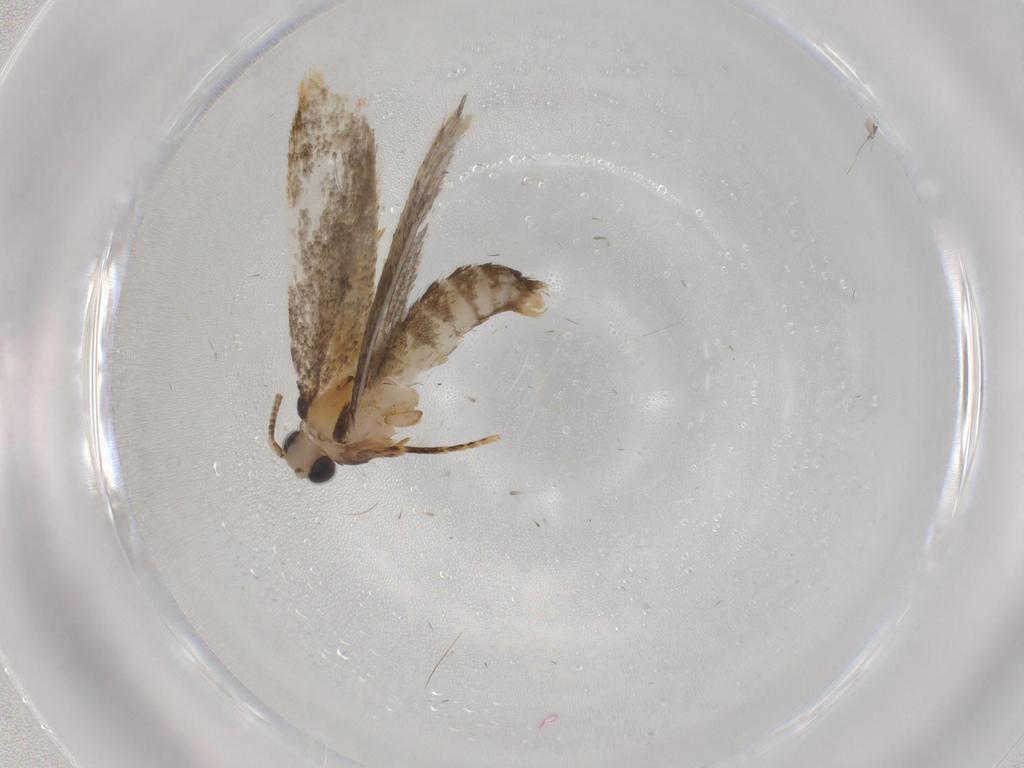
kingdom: Animalia
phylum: Arthropoda
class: Insecta
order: Lepidoptera
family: Tineidae
